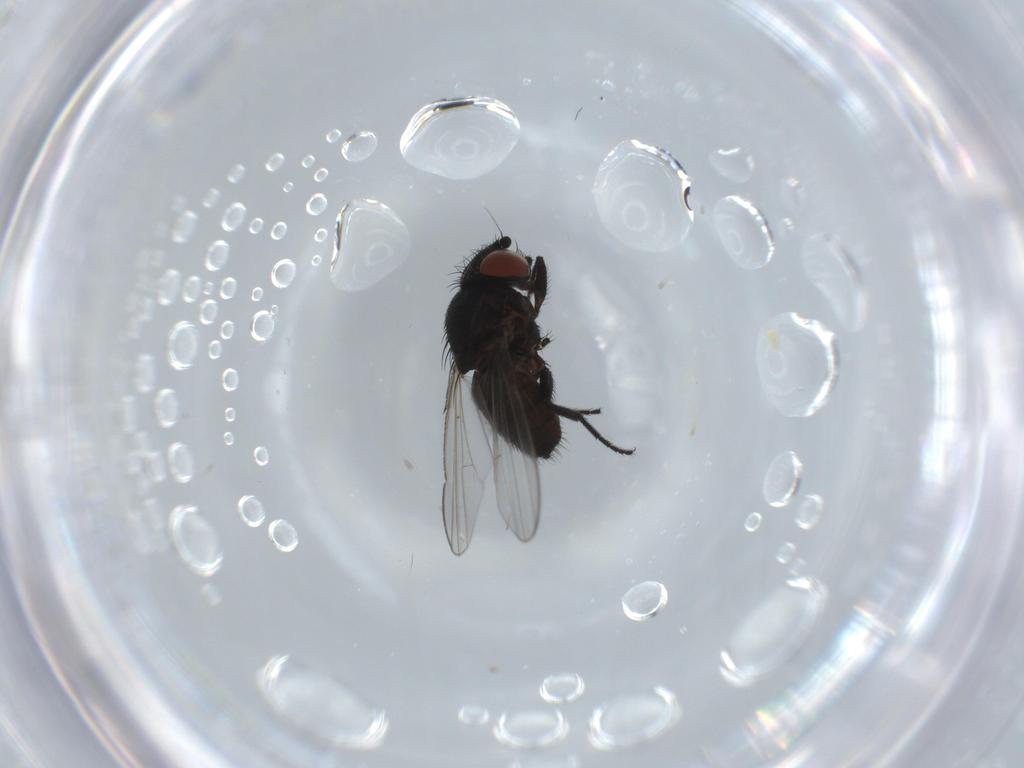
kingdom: Animalia
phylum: Arthropoda
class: Insecta
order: Diptera
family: Milichiidae
